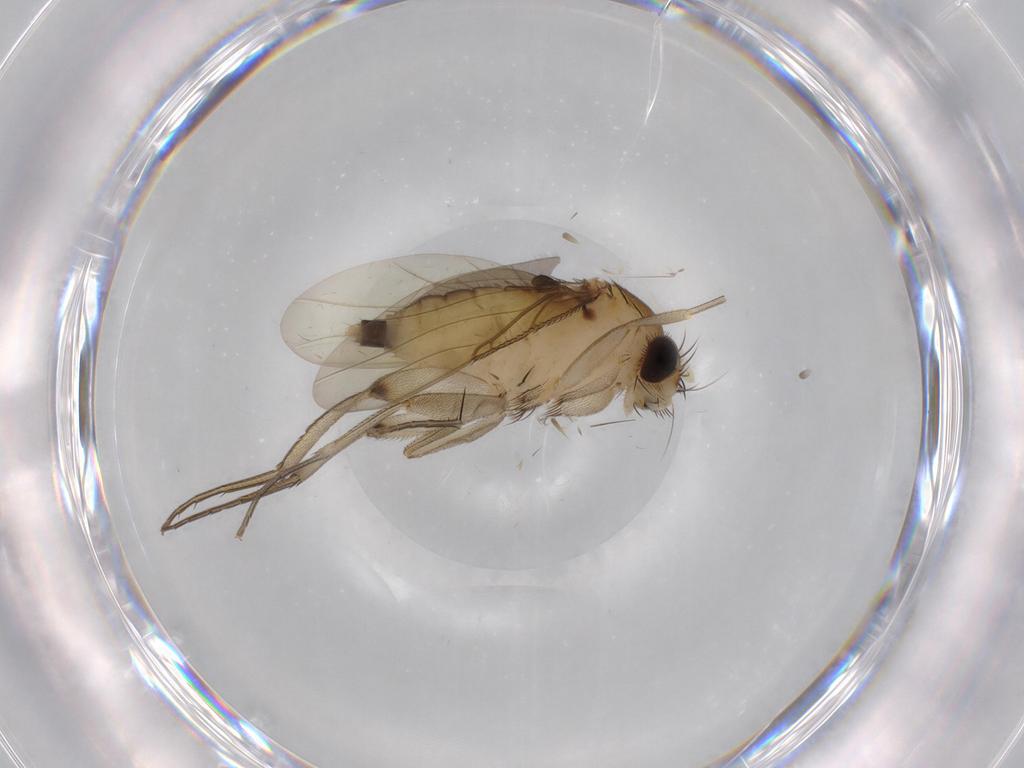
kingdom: Animalia
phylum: Arthropoda
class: Insecta
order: Diptera
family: Phoridae
